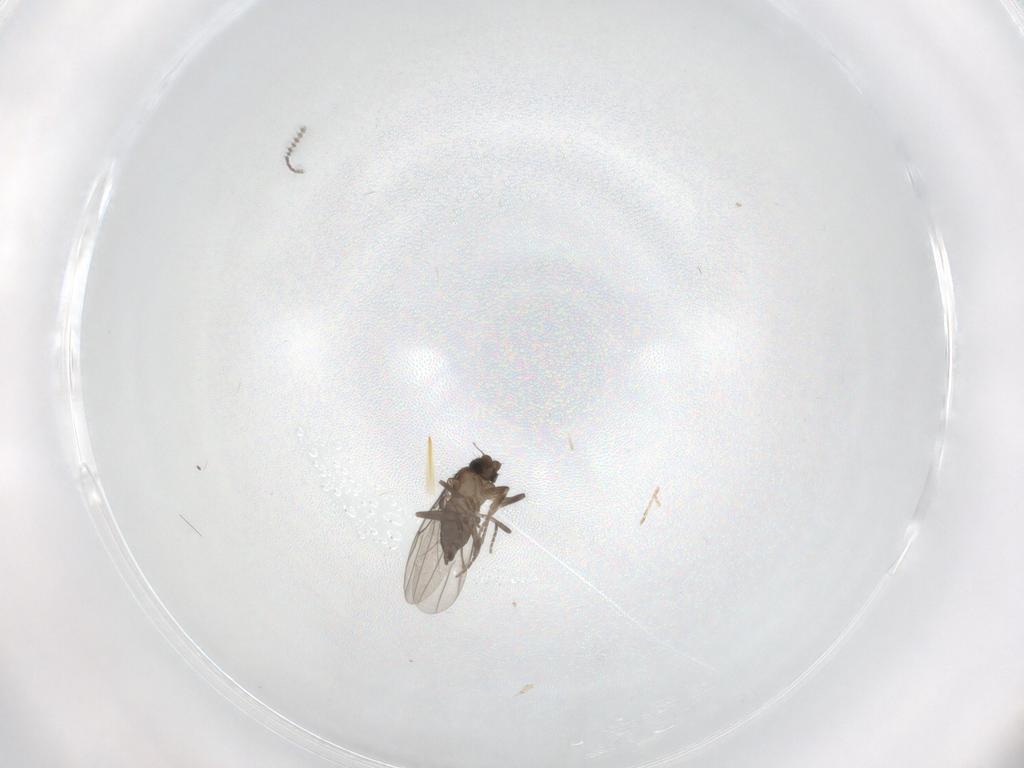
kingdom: Animalia
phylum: Arthropoda
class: Insecta
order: Diptera
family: Cecidomyiidae
